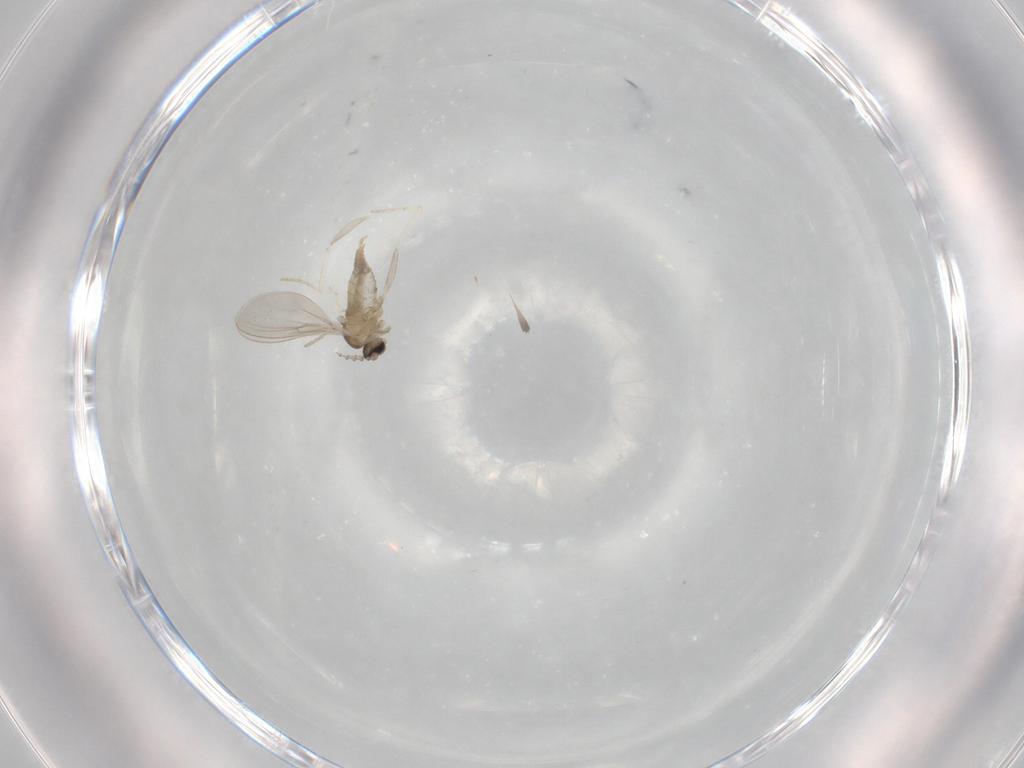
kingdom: Animalia
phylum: Arthropoda
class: Insecta
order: Diptera
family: Cecidomyiidae
